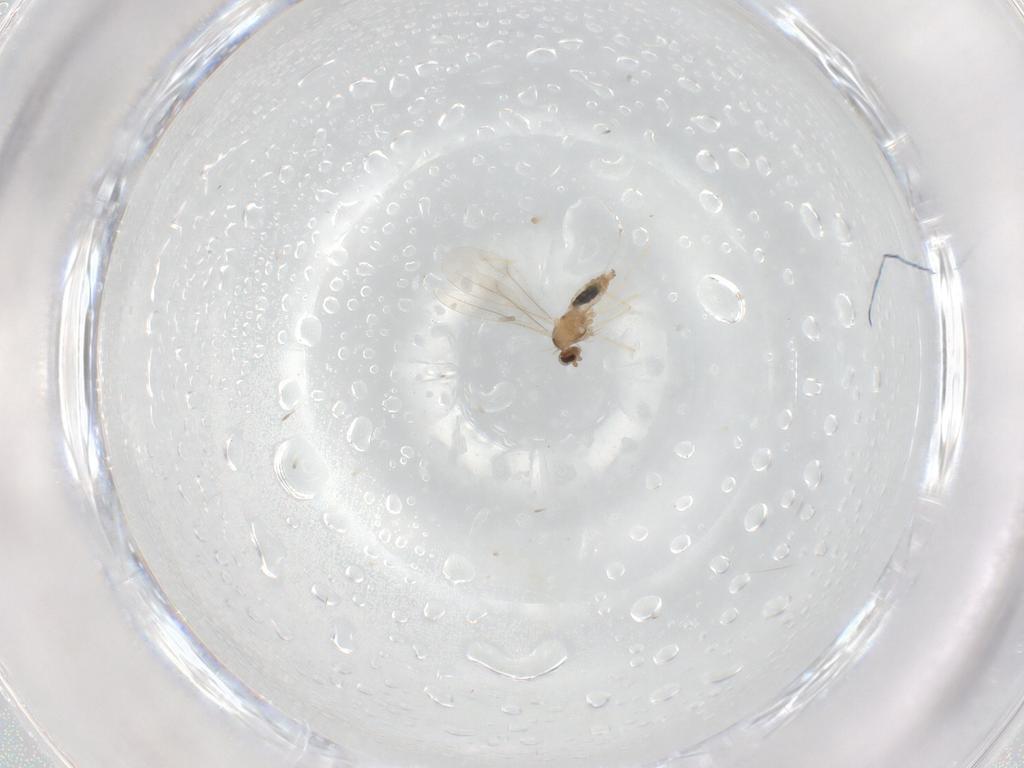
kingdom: Animalia
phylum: Arthropoda
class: Insecta
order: Diptera
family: Cecidomyiidae
